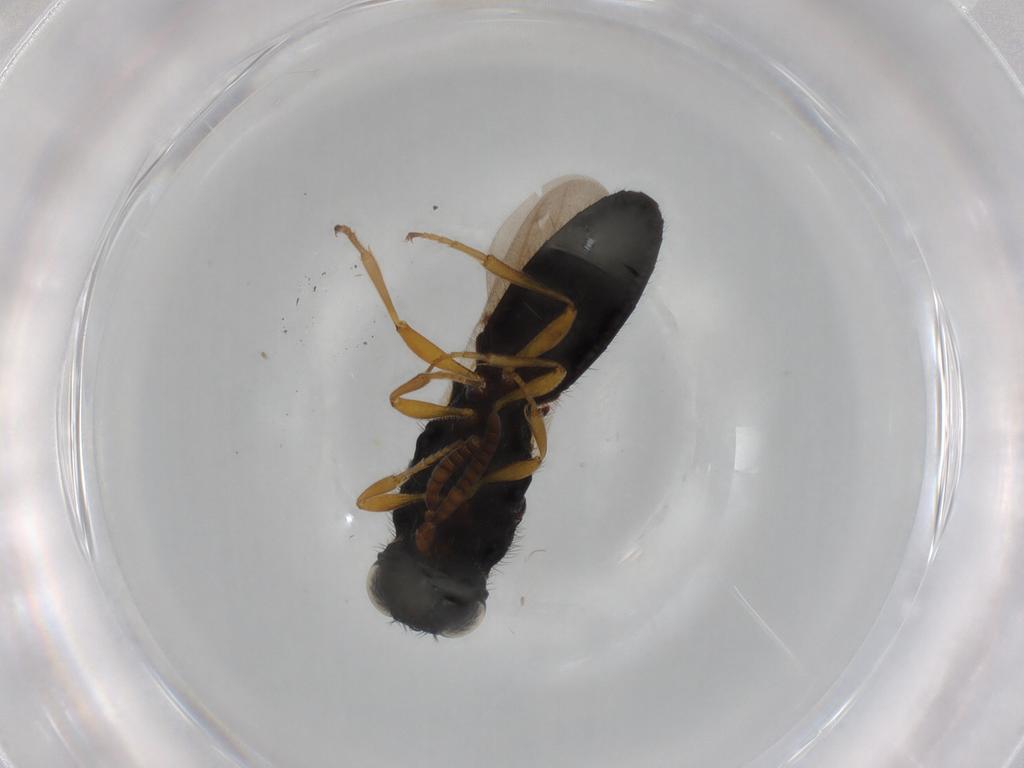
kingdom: Animalia
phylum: Arthropoda
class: Insecta
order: Hymenoptera
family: Scelionidae
